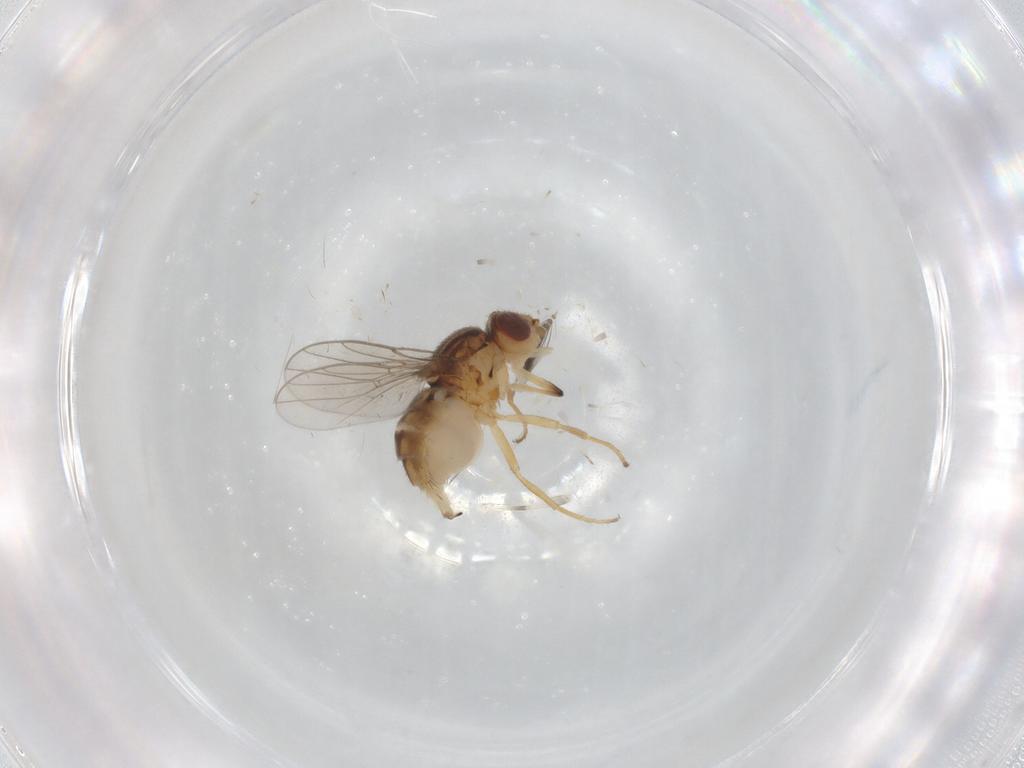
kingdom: Animalia
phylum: Arthropoda
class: Insecta
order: Diptera
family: Chloropidae
